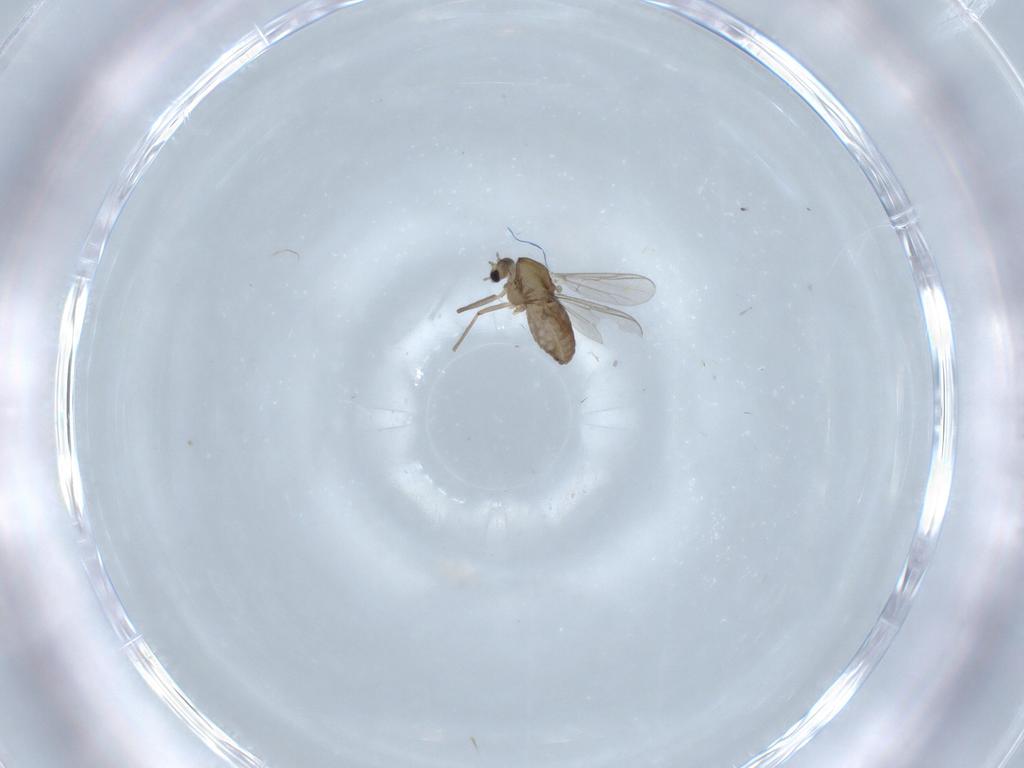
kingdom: Animalia
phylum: Arthropoda
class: Insecta
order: Diptera
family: Chironomidae
